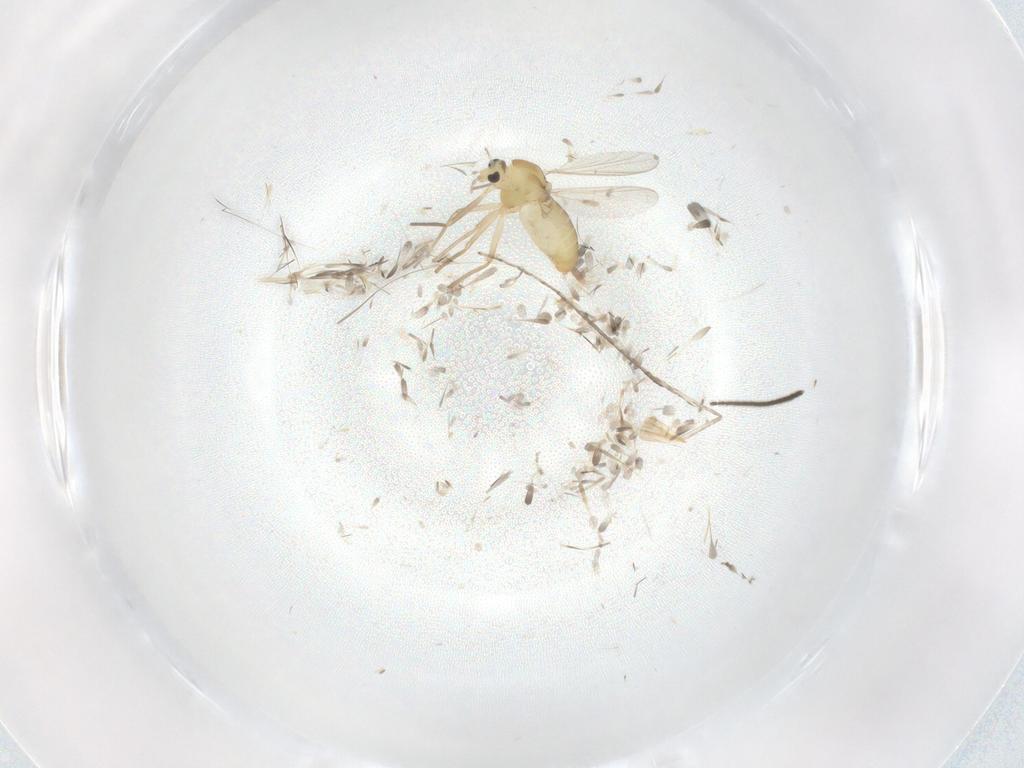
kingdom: Animalia
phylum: Arthropoda
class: Insecta
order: Diptera
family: Chironomidae
